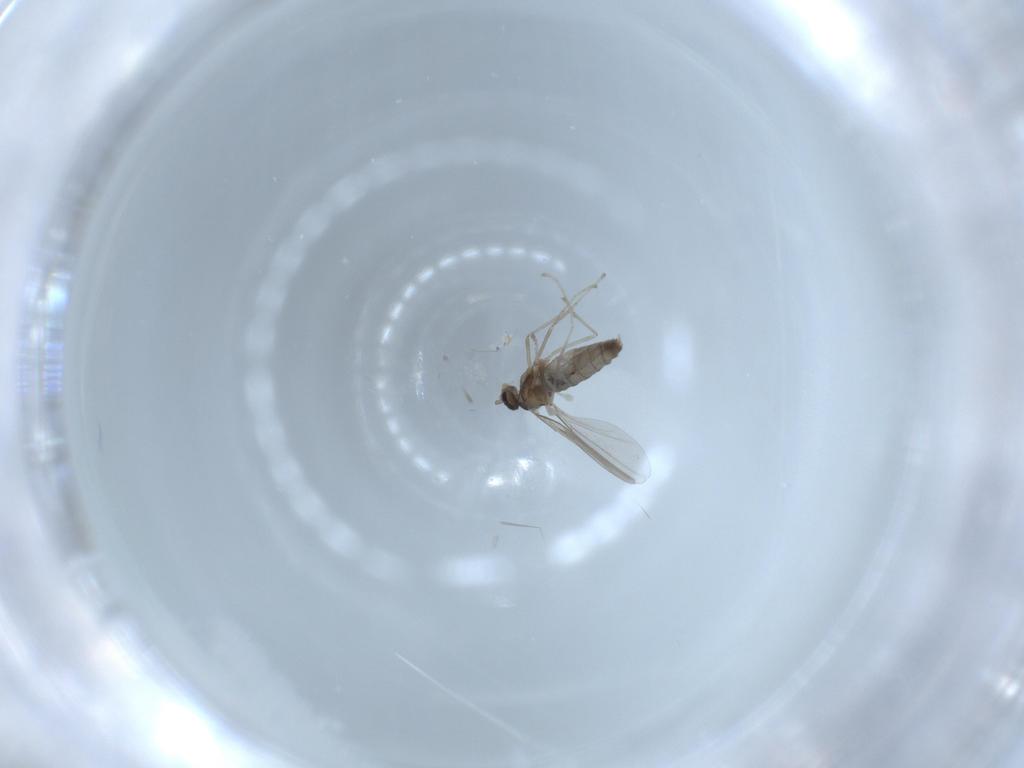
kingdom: Animalia
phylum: Arthropoda
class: Insecta
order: Diptera
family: Cecidomyiidae
